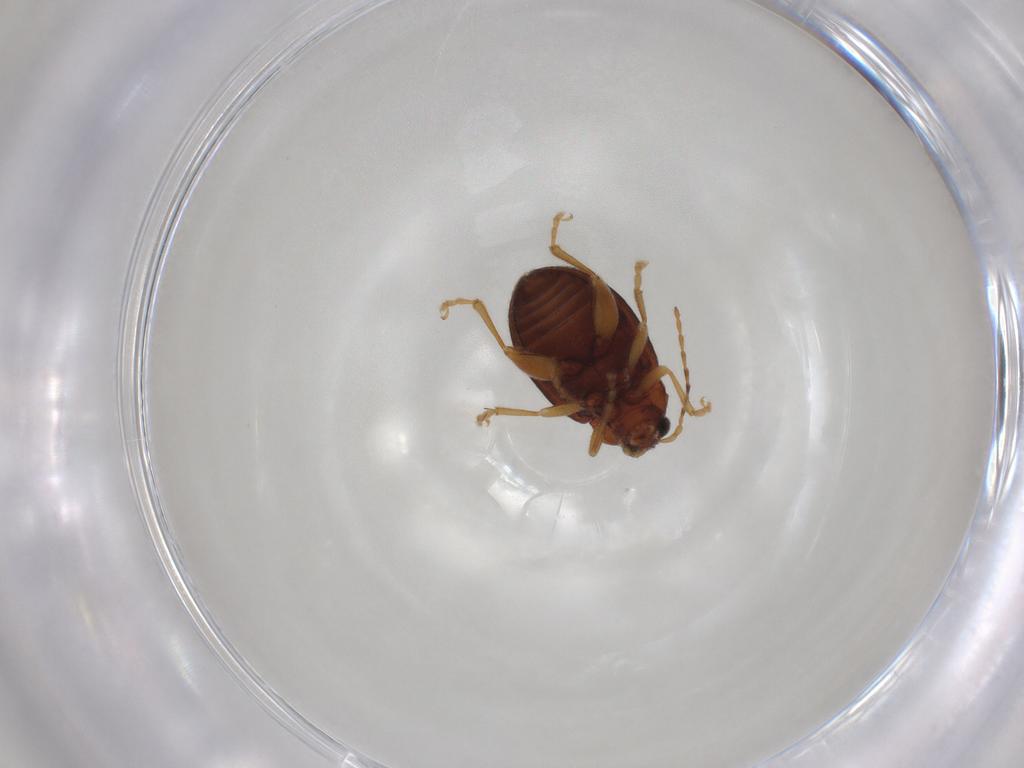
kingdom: Animalia
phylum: Arthropoda
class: Insecta
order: Coleoptera
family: Chrysomelidae
